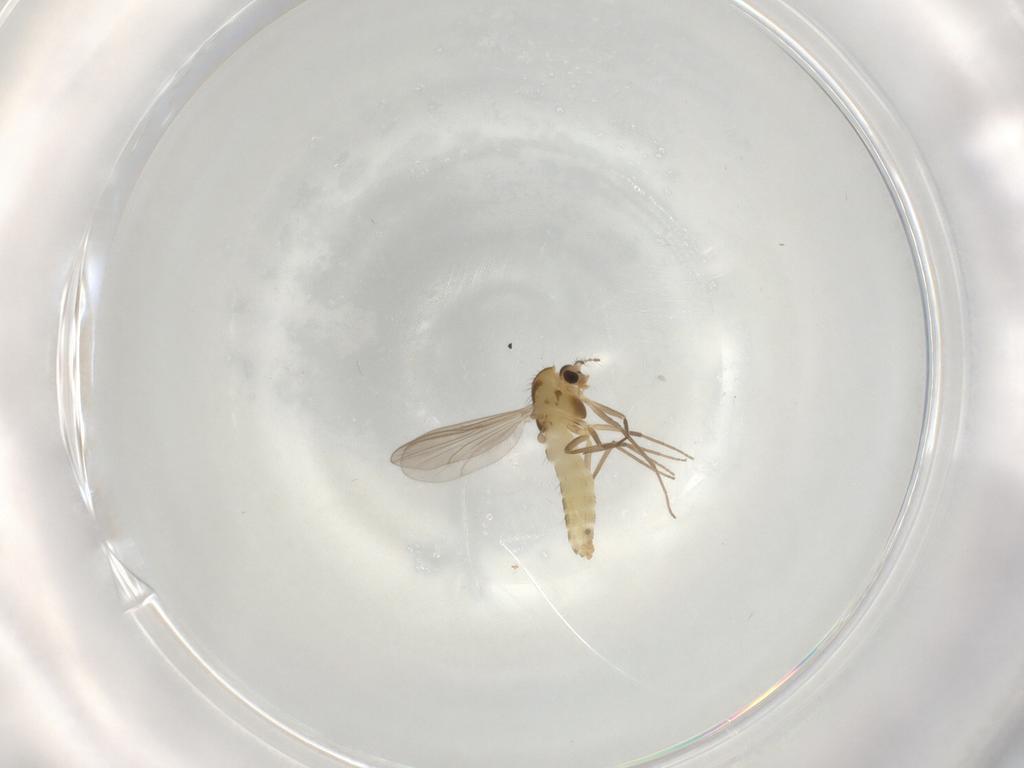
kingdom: Animalia
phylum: Arthropoda
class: Insecta
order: Diptera
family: Chironomidae
